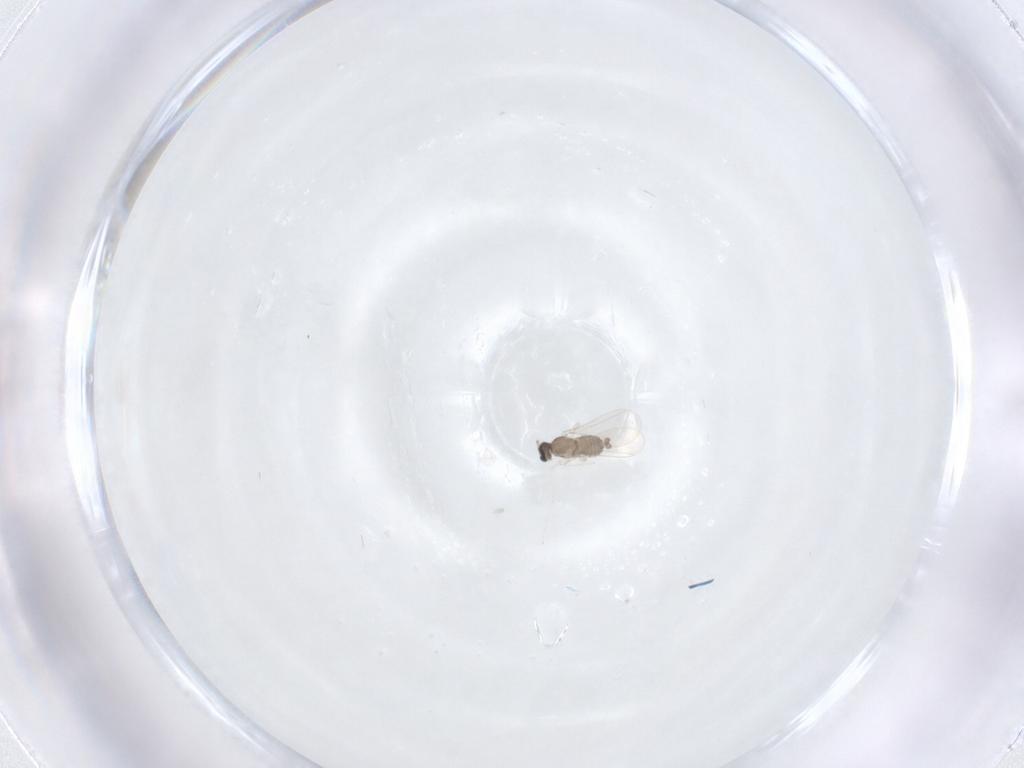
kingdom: Animalia
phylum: Arthropoda
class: Insecta
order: Diptera
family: Cecidomyiidae
